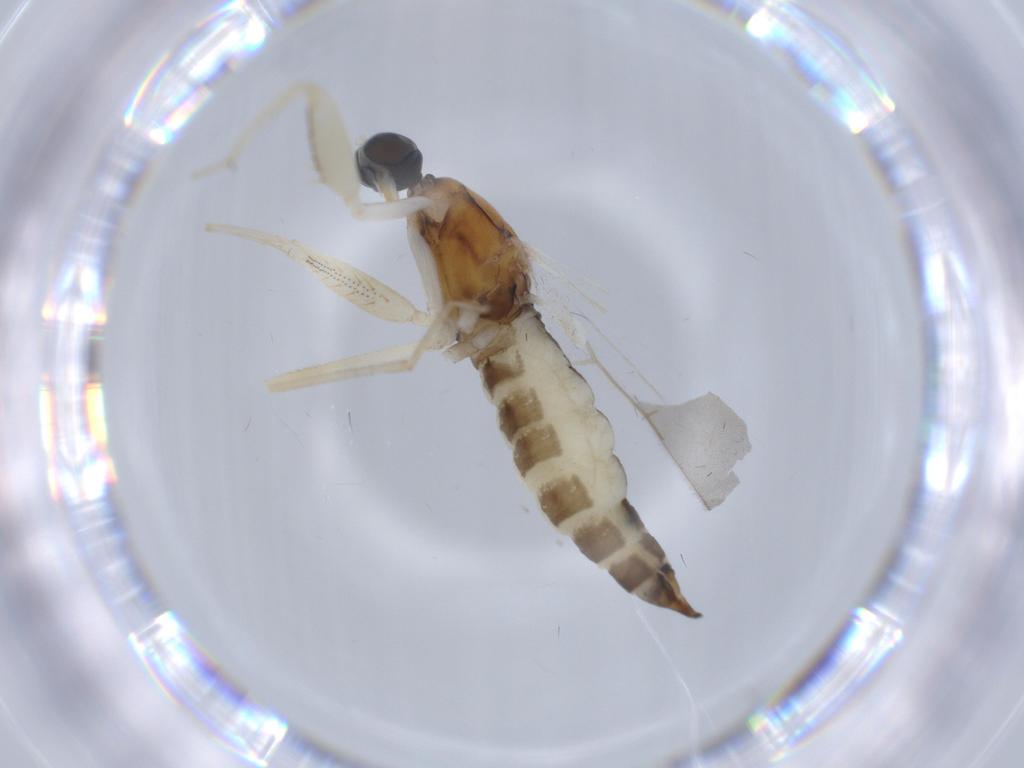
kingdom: Animalia
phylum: Arthropoda
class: Insecta
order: Diptera
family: Empididae
